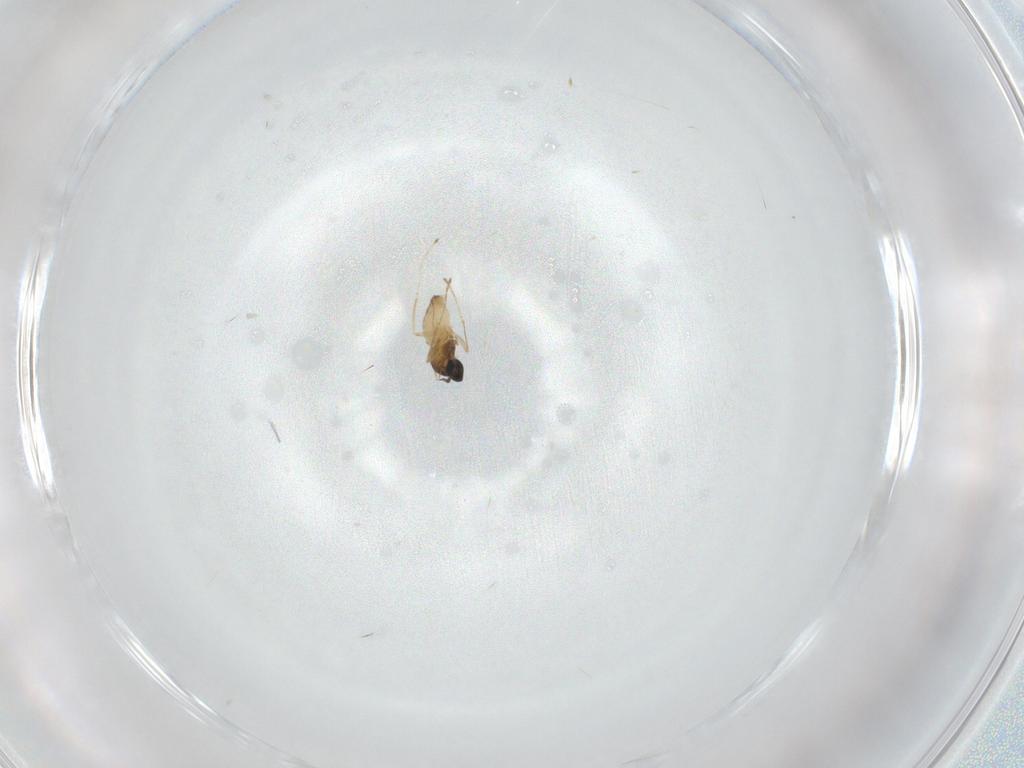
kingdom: Animalia
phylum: Arthropoda
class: Insecta
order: Diptera
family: Cecidomyiidae
